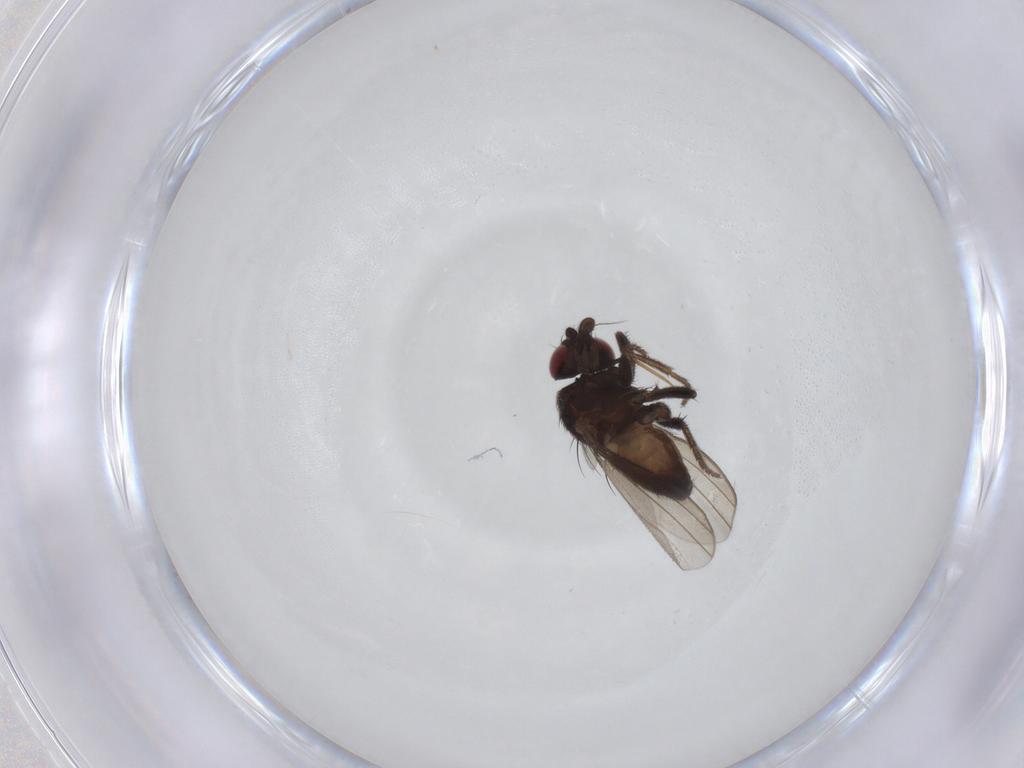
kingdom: Animalia
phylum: Arthropoda
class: Insecta
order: Diptera
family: Milichiidae
